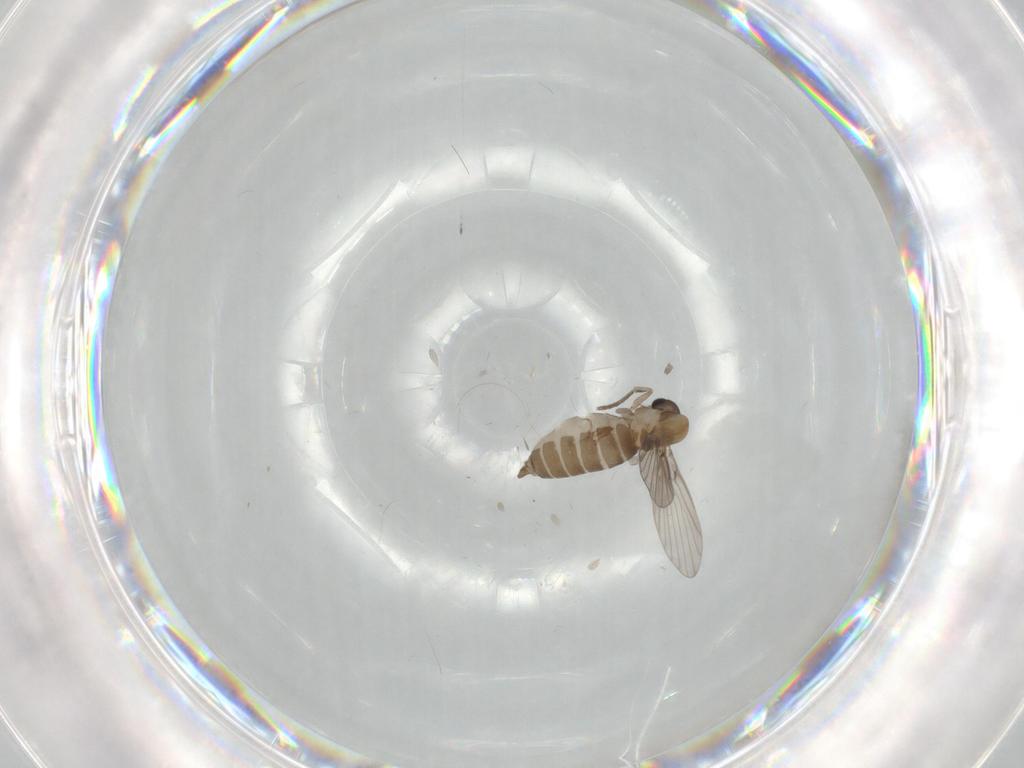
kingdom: Animalia
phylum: Arthropoda
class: Insecta
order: Diptera
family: Psychodidae
